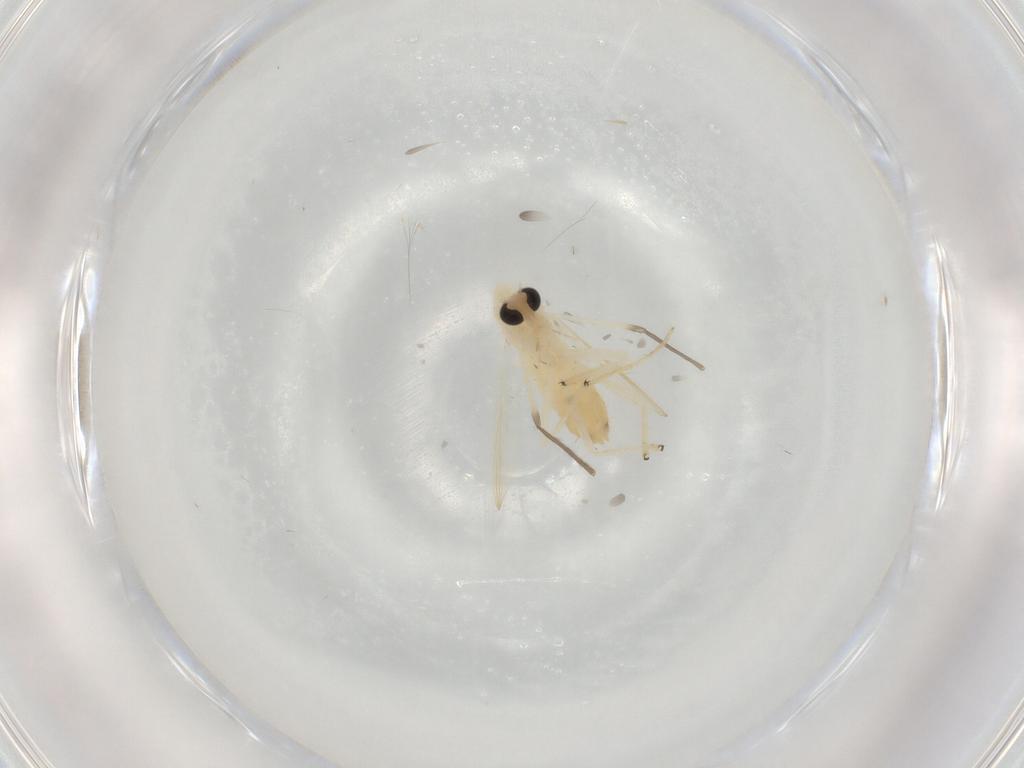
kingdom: Animalia
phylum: Arthropoda
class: Insecta
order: Diptera
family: Chironomidae
